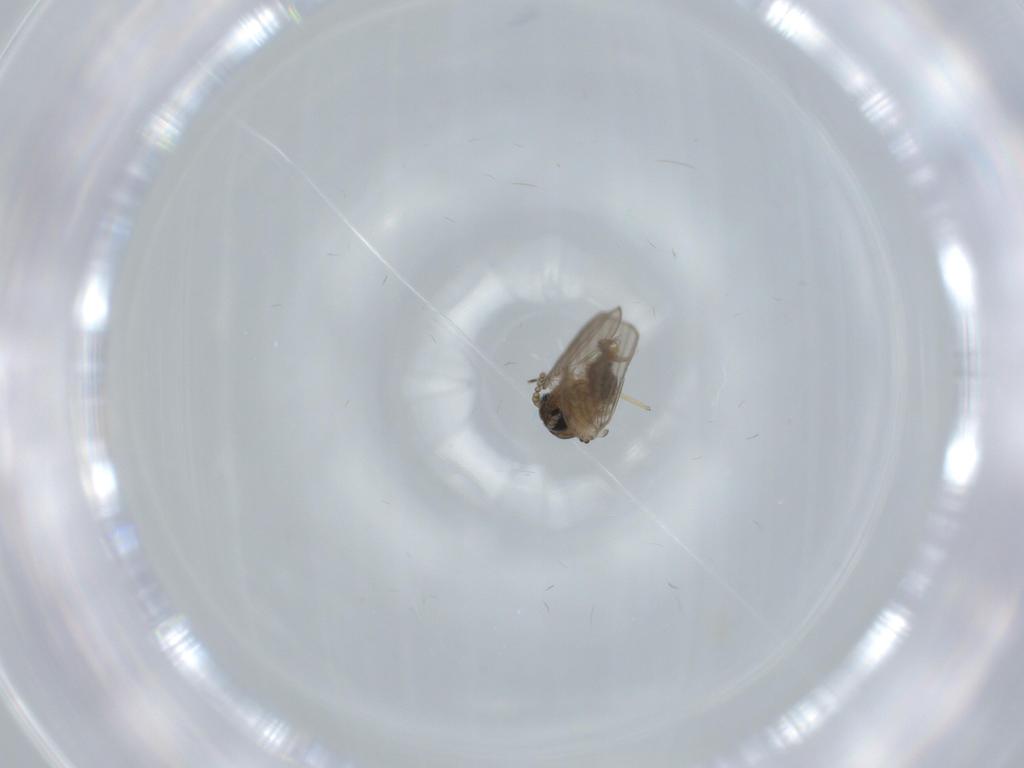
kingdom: Animalia
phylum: Arthropoda
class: Insecta
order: Diptera
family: Psychodidae
